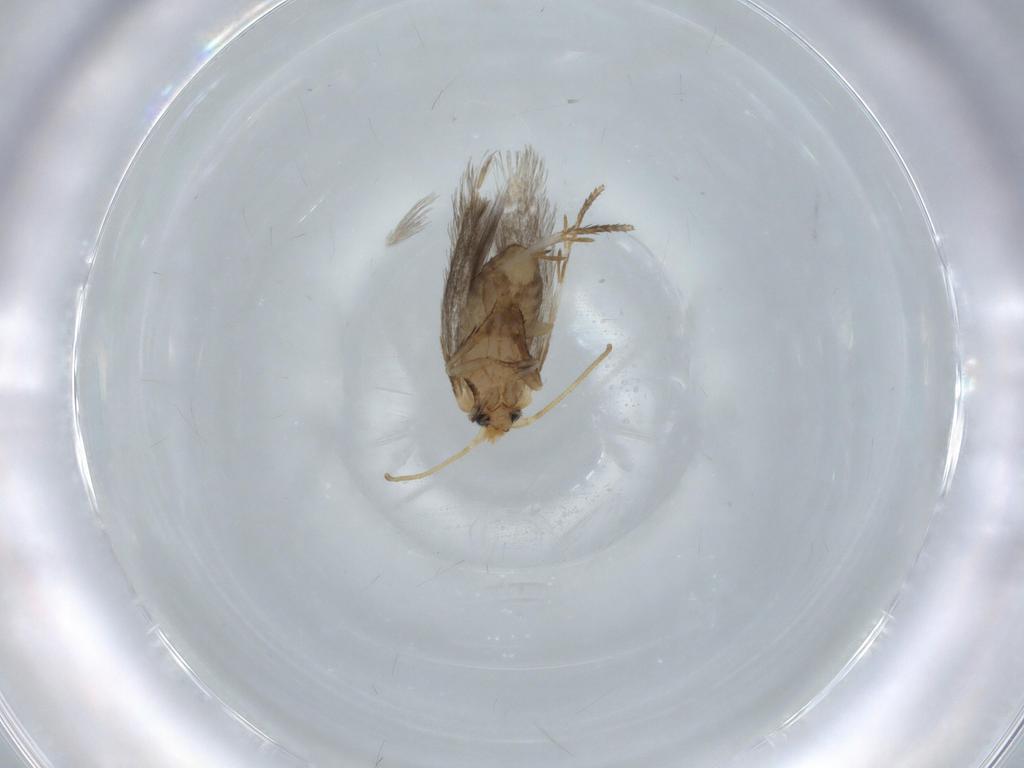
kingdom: Animalia
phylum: Arthropoda
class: Insecta
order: Lepidoptera
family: Nepticulidae
